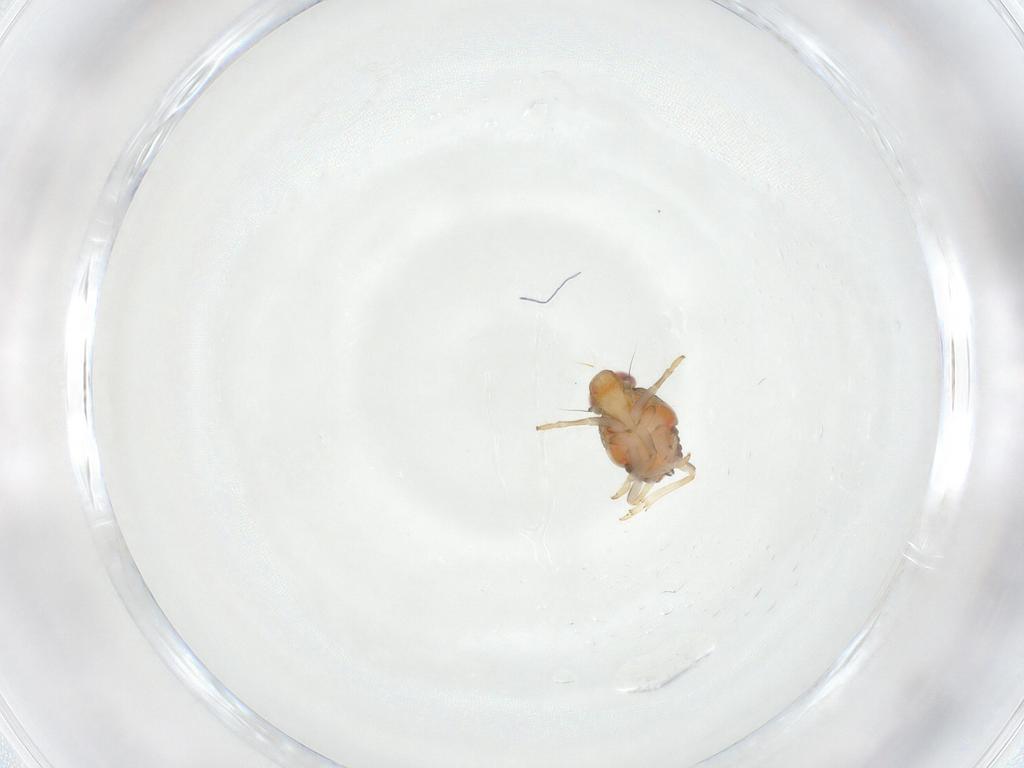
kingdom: Animalia
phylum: Arthropoda
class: Insecta
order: Hemiptera
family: Issidae
